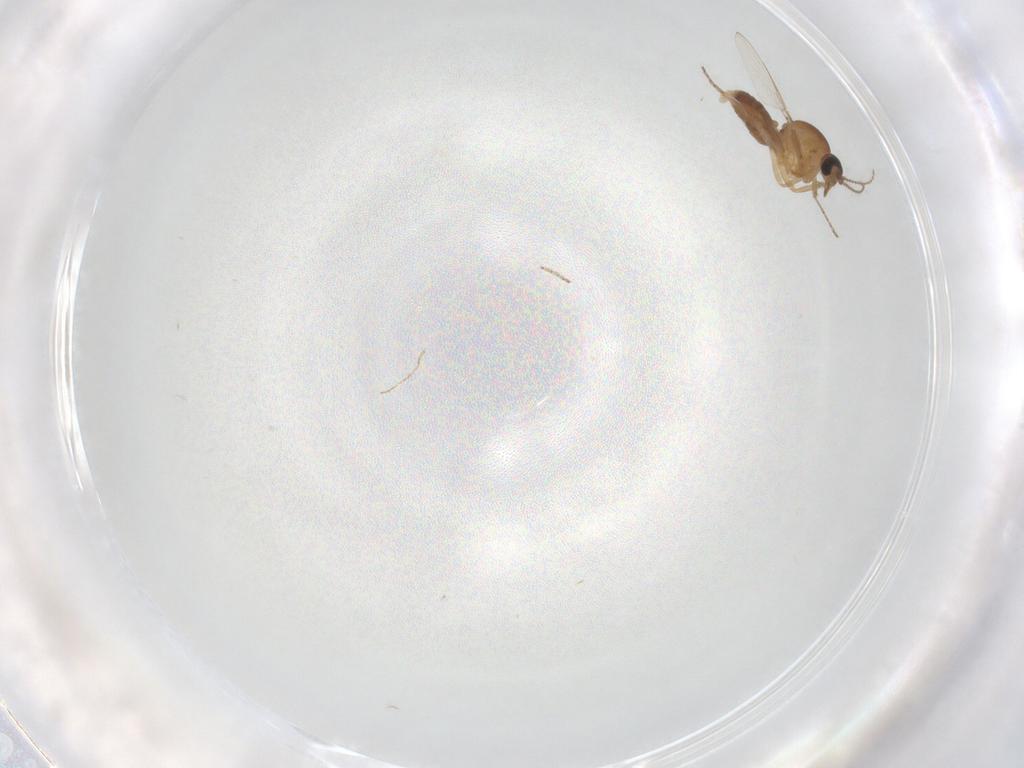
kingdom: Animalia
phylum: Arthropoda
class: Insecta
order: Diptera
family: Ceratopogonidae
